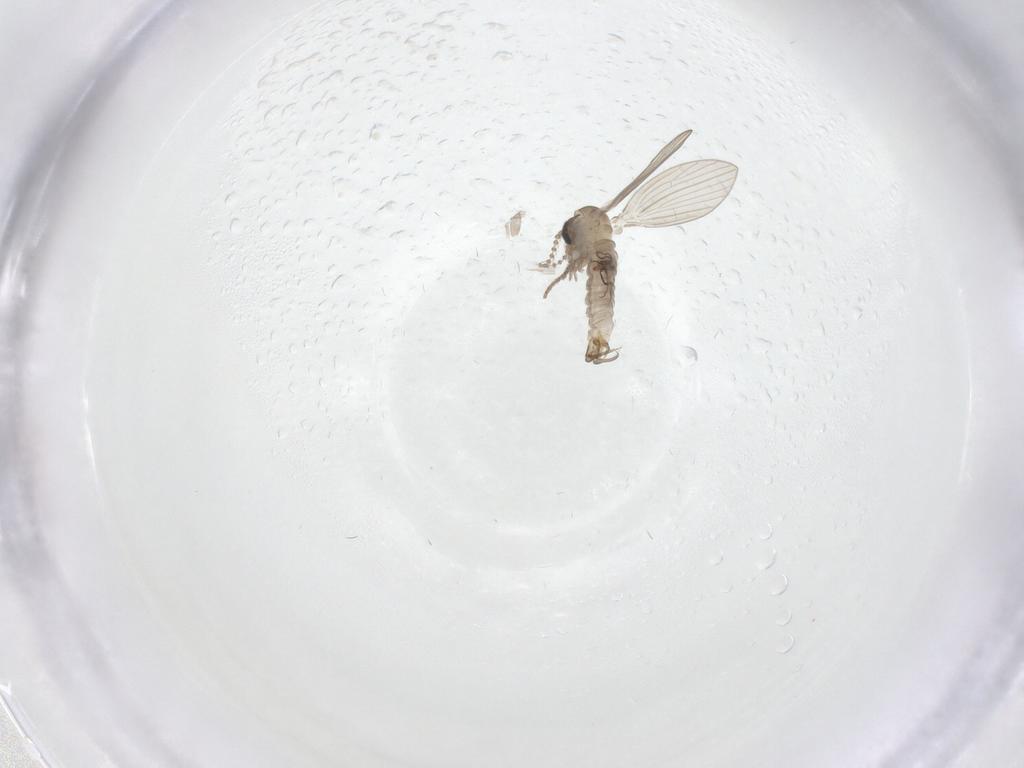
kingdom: Animalia
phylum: Arthropoda
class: Insecta
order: Diptera
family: Psychodidae
